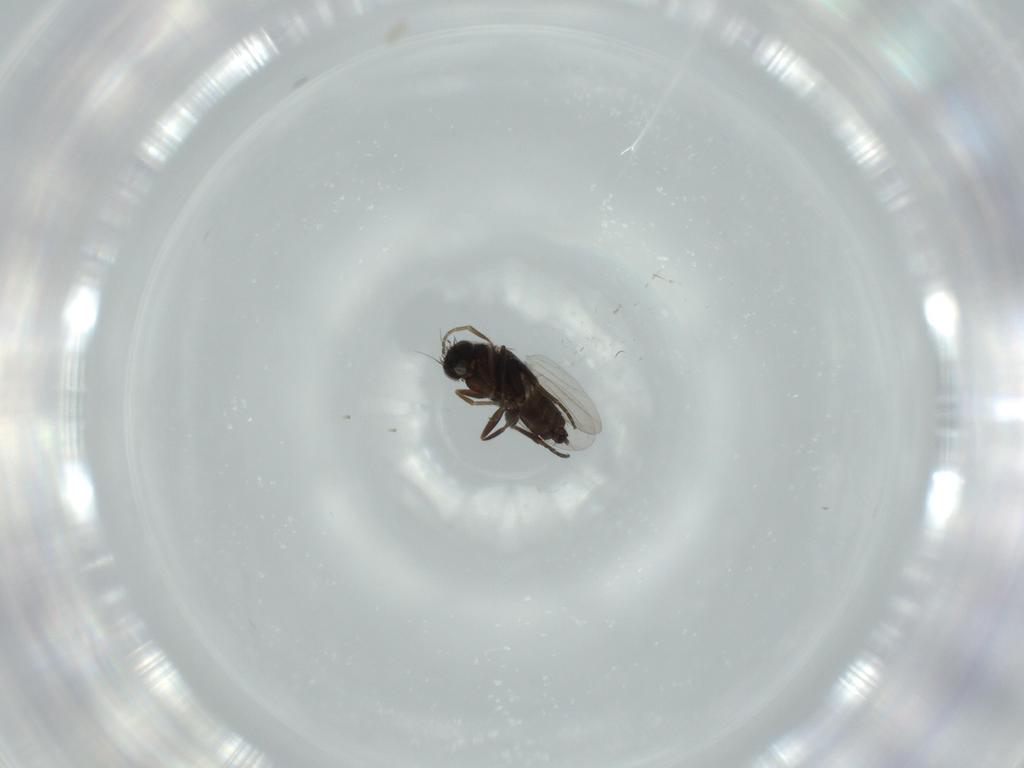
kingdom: Animalia
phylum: Arthropoda
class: Insecta
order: Diptera
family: Phoridae
